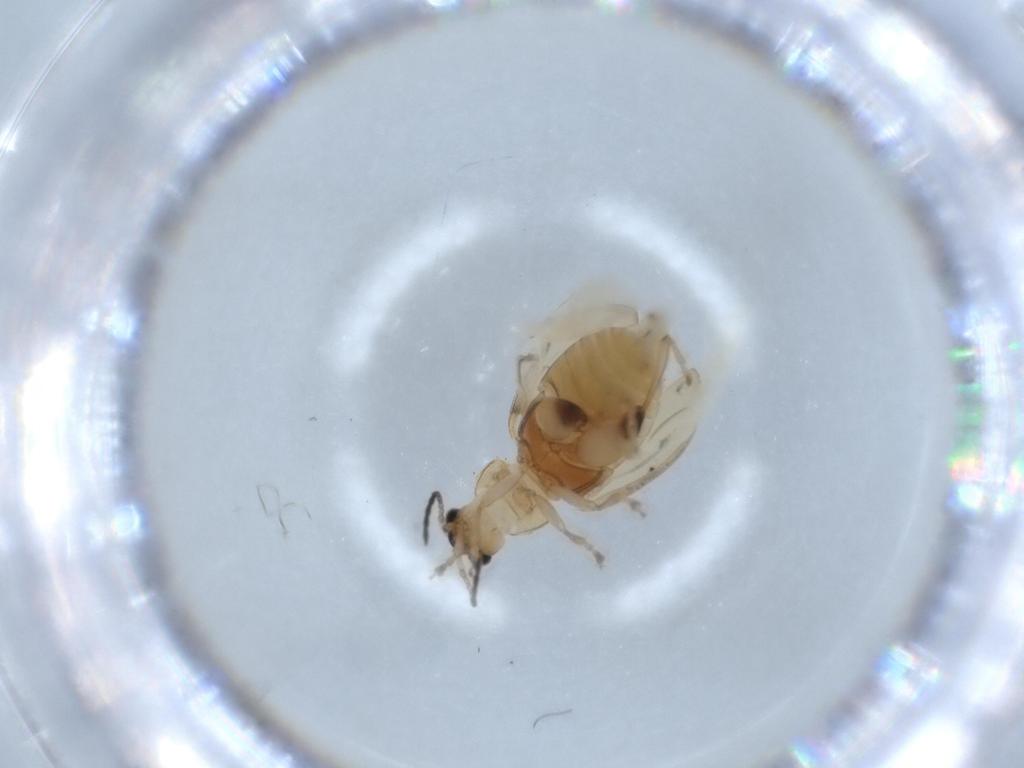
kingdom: Animalia
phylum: Arthropoda
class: Insecta
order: Coleoptera
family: Chrysomelidae
